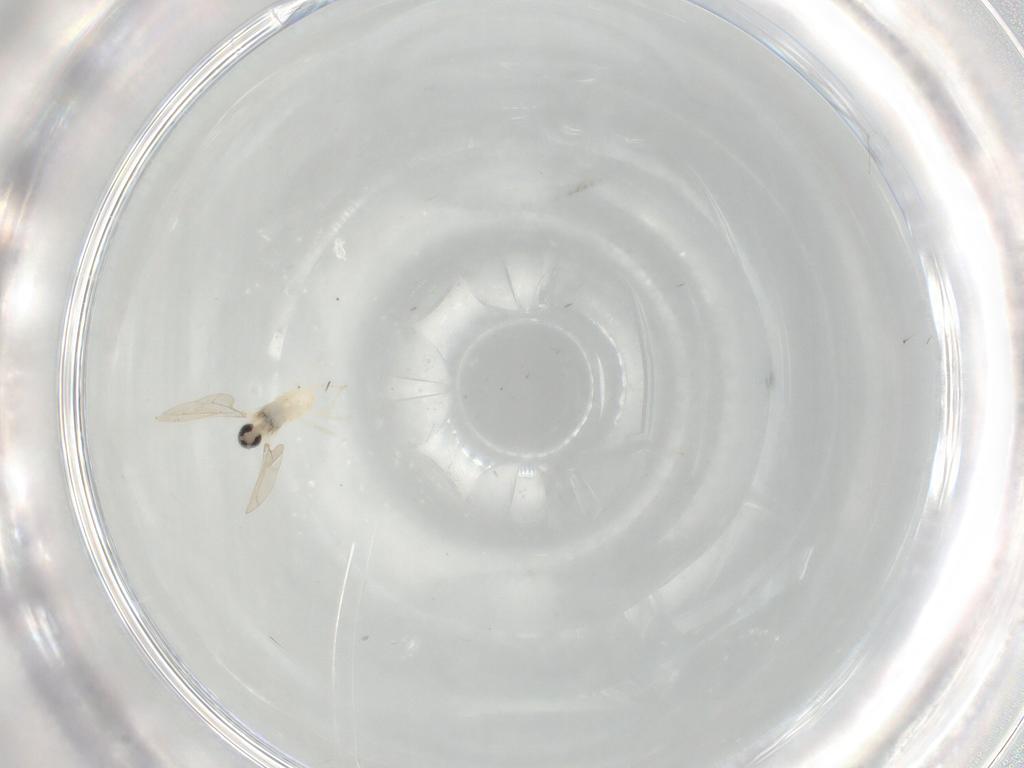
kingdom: Animalia
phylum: Arthropoda
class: Insecta
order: Diptera
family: Cecidomyiidae
